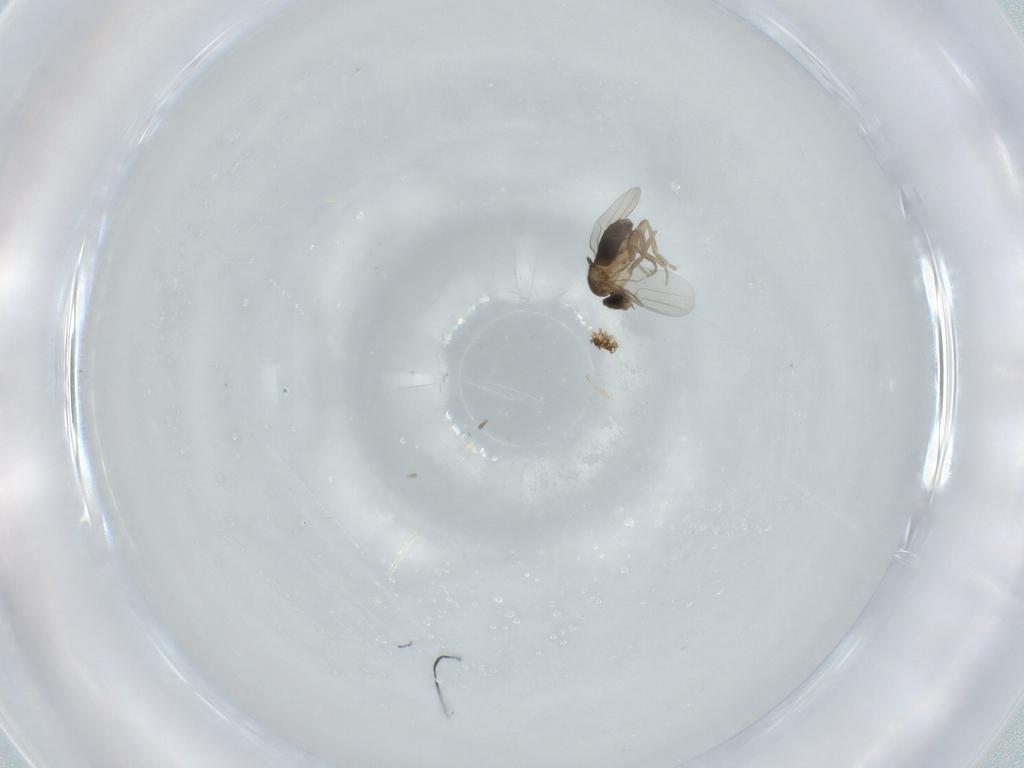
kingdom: Animalia
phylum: Arthropoda
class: Insecta
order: Diptera
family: Phoridae
